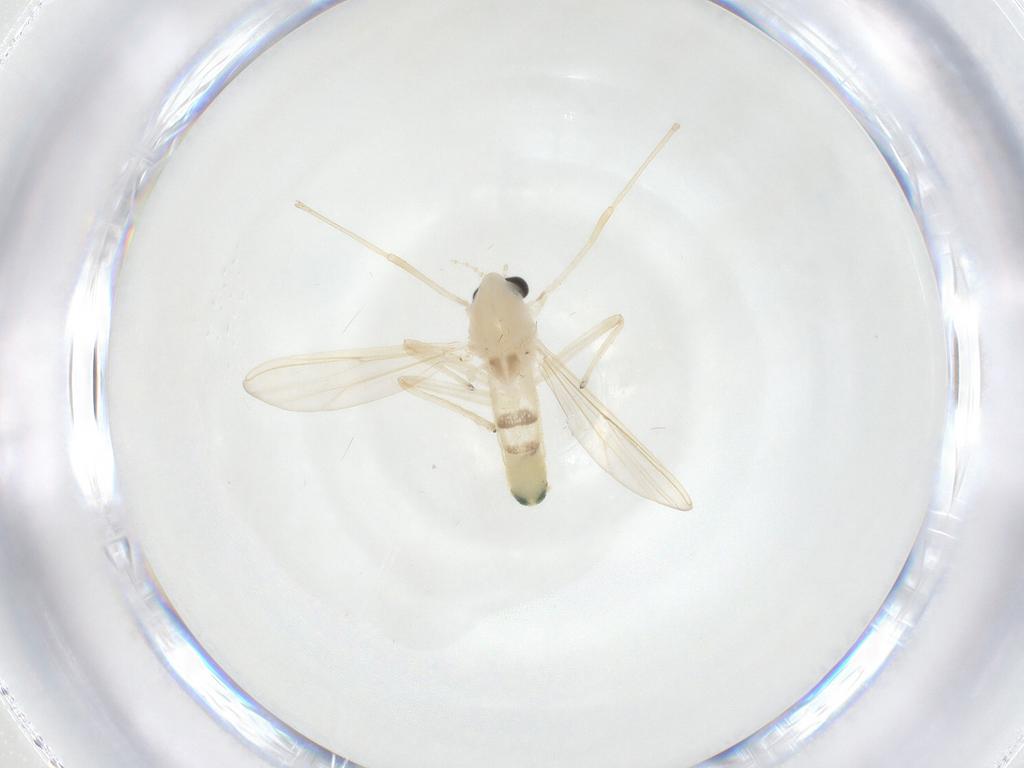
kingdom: Animalia
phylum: Arthropoda
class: Insecta
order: Diptera
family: Chironomidae
